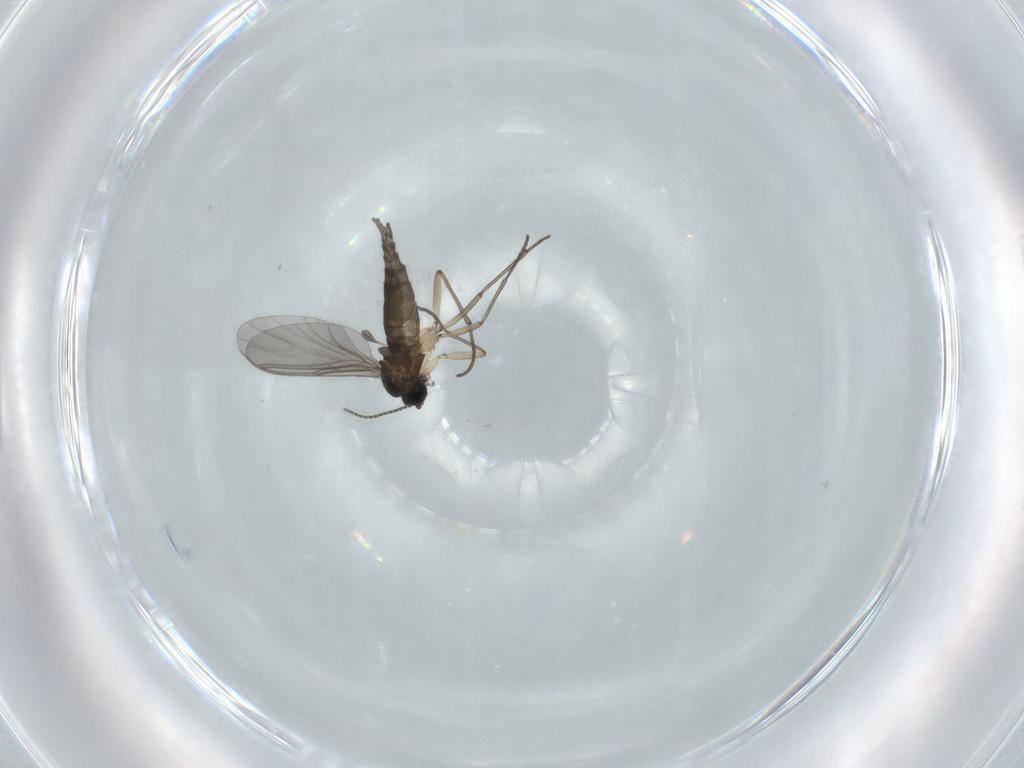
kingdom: Animalia
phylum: Arthropoda
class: Insecta
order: Diptera
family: Sciaridae
